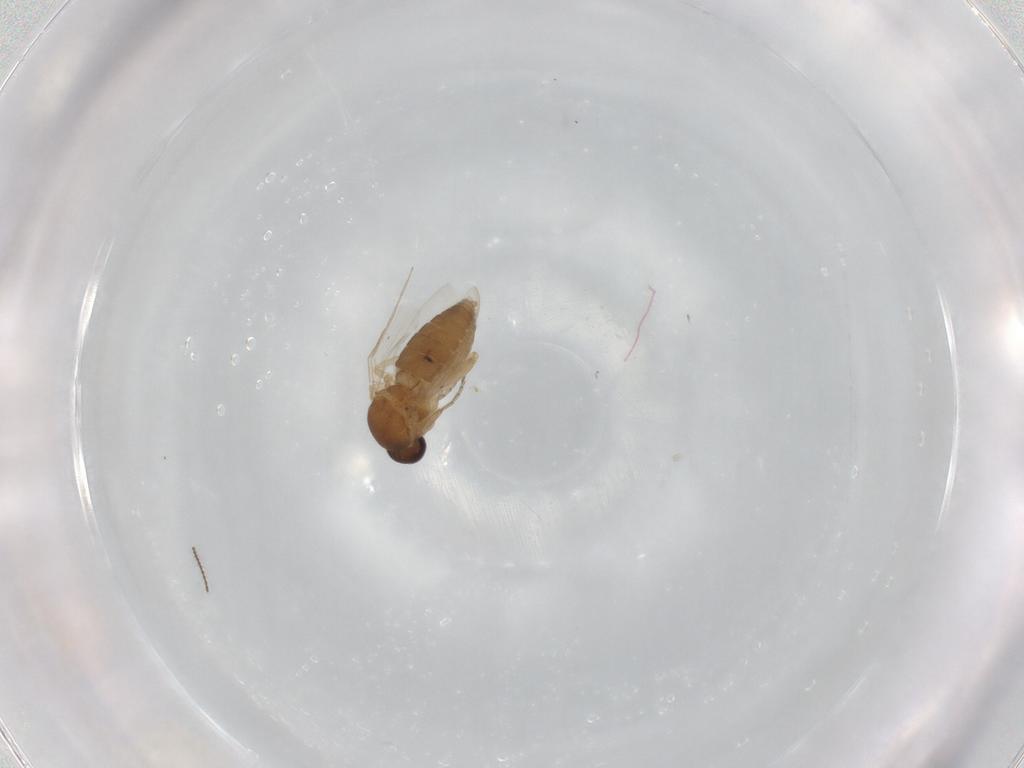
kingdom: Animalia
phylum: Arthropoda
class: Insecta
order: Diptera
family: Ceratopogonidae
